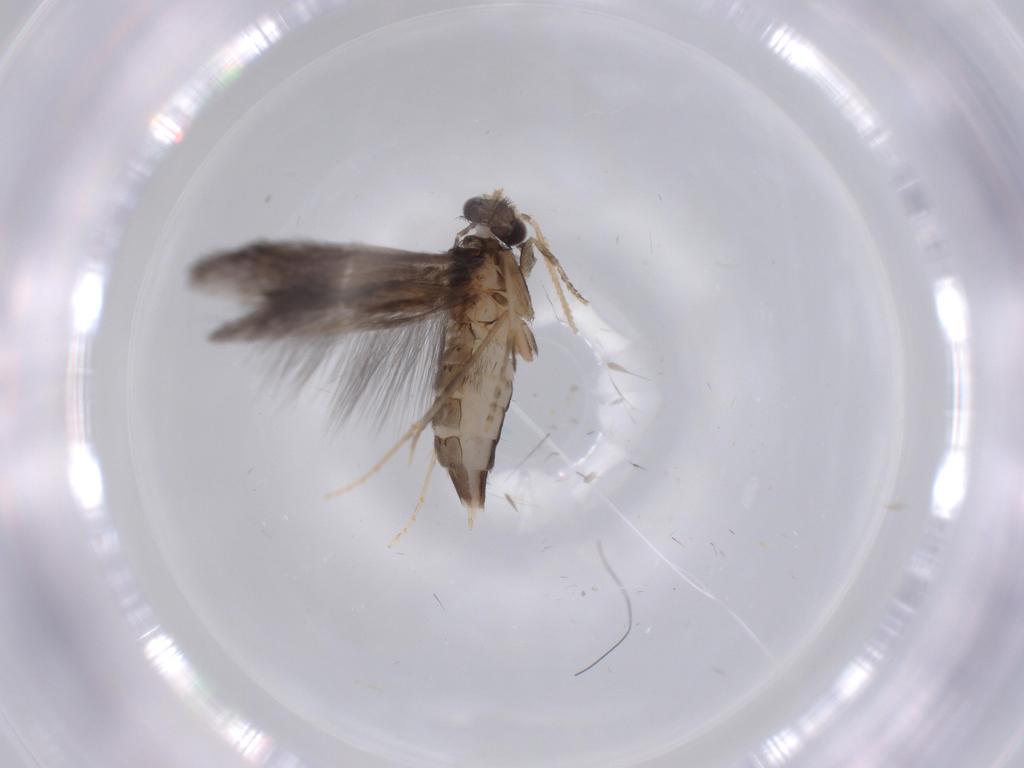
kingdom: Animalia
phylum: Arthropoda
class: Insecta
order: Trichoptera
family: Hydroptilidae
